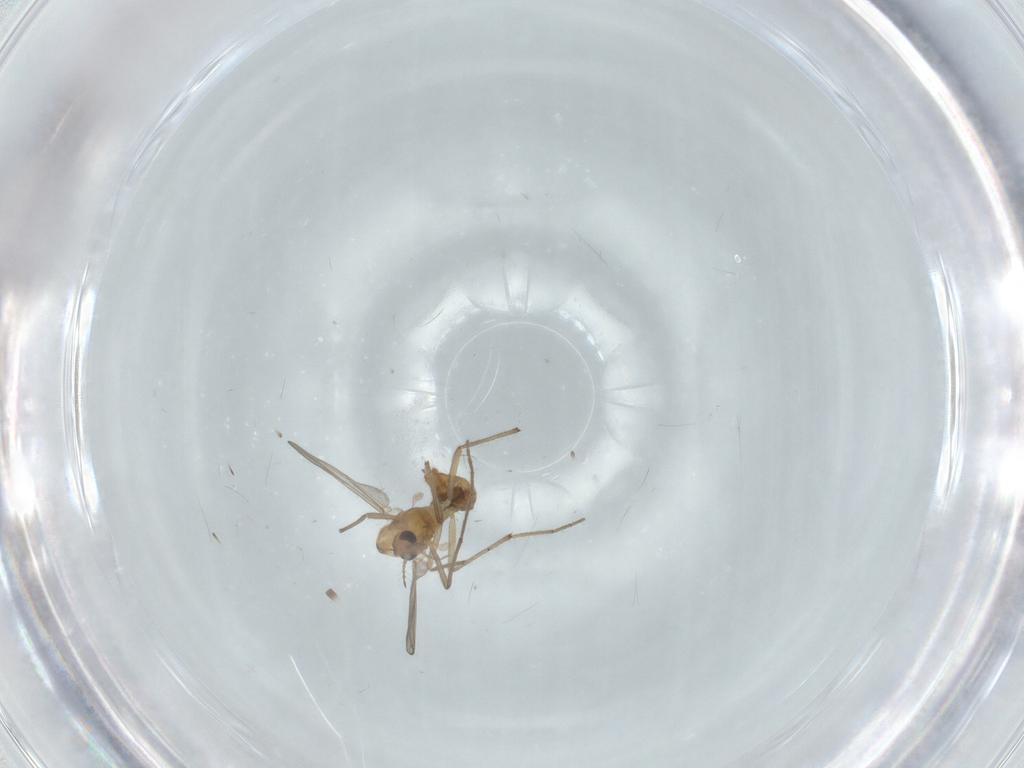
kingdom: Animalia
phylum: Arthropoda
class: Insecta
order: Diptera
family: Chironomidae
